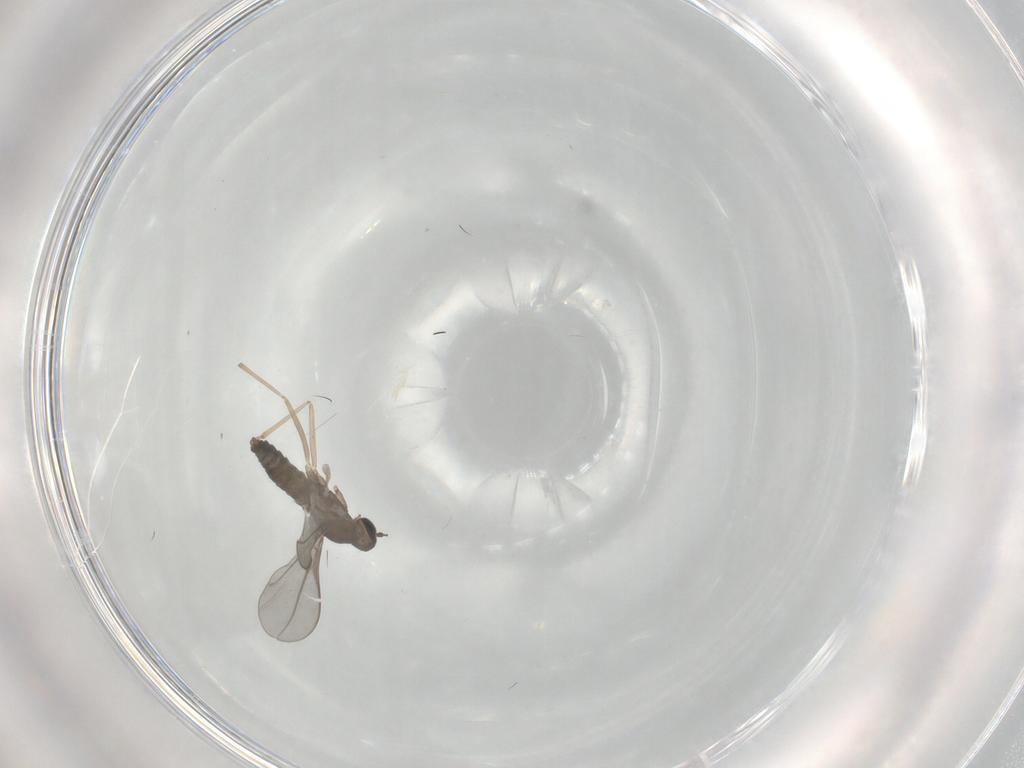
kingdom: Animalia
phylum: Arthropoda
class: Insecta
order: Diptera
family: Cecidomyiidae
